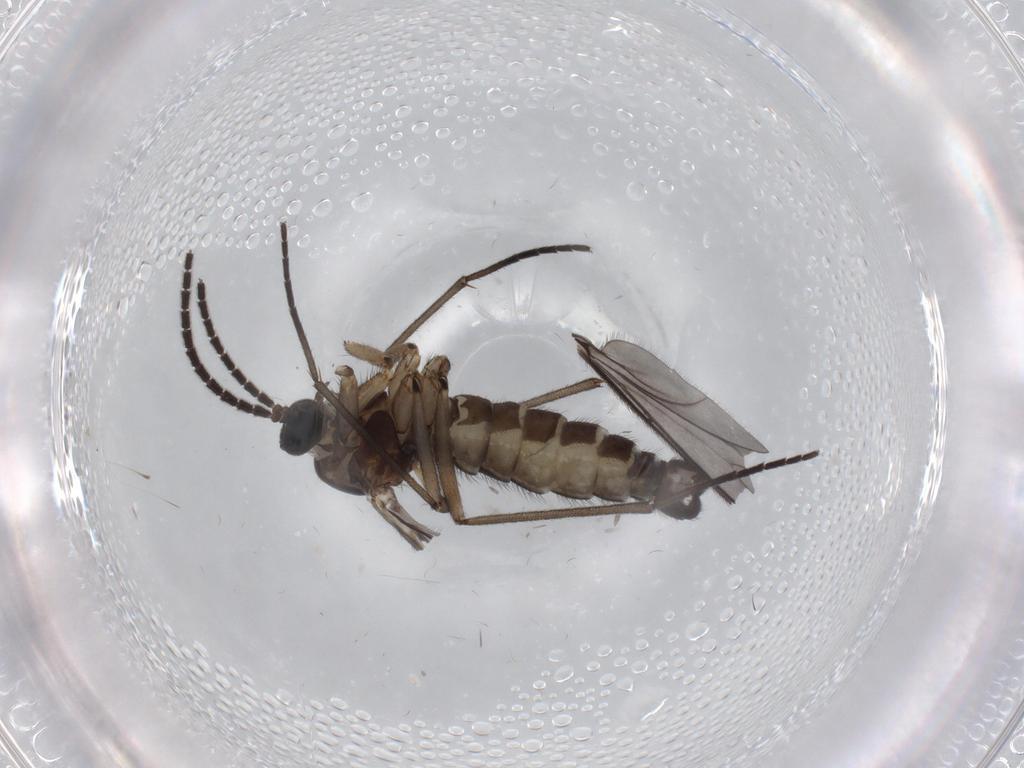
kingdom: Animalia
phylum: Arthropoda
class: Insecta
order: Diptera
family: Sciaridae
